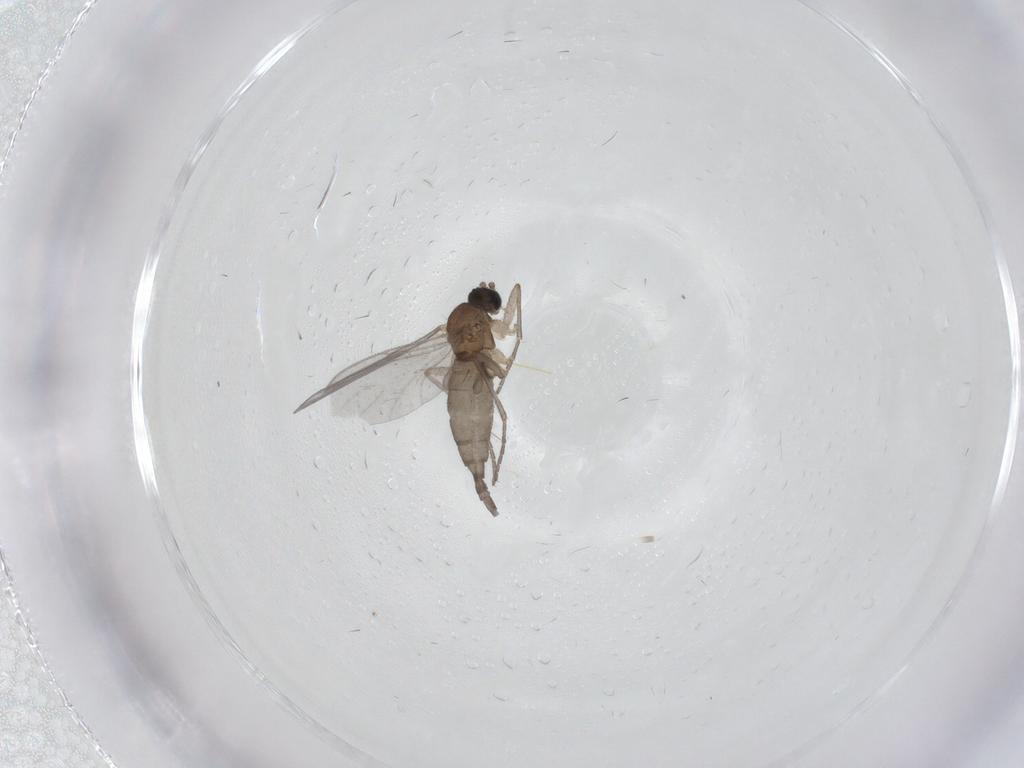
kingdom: Animalia
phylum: Arthropoda
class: Insecta
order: Diptera
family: Sciaridae
